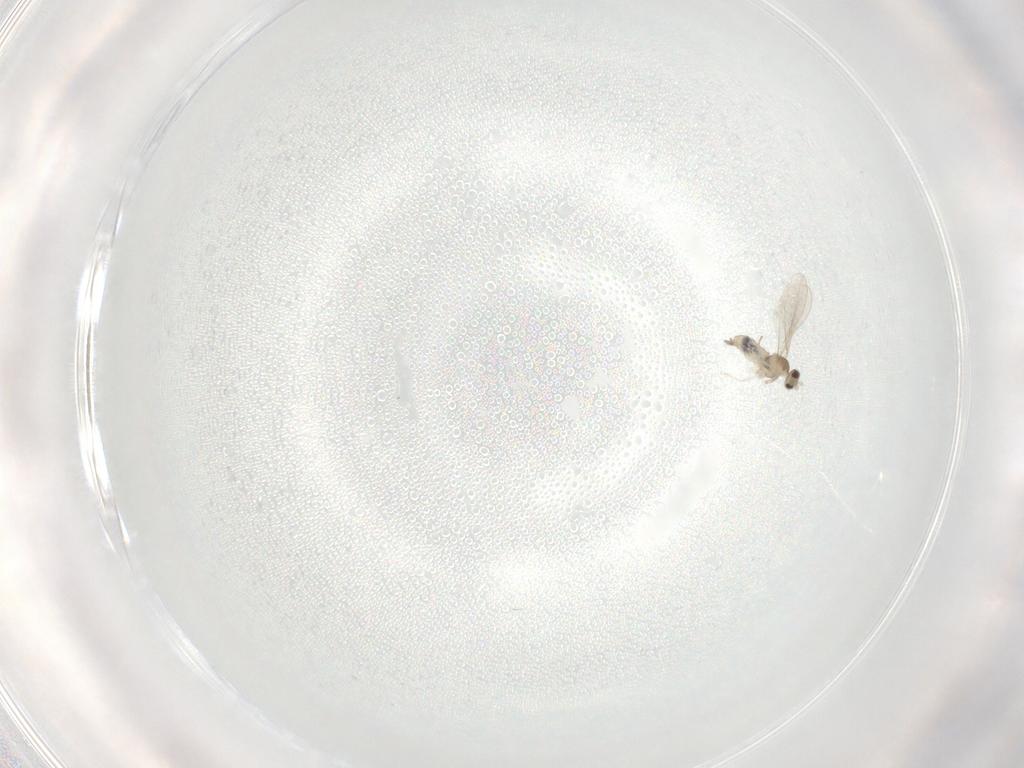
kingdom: Animalia
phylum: Arthropoda
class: Insecta
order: Diptera
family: Cecidomyiidae
